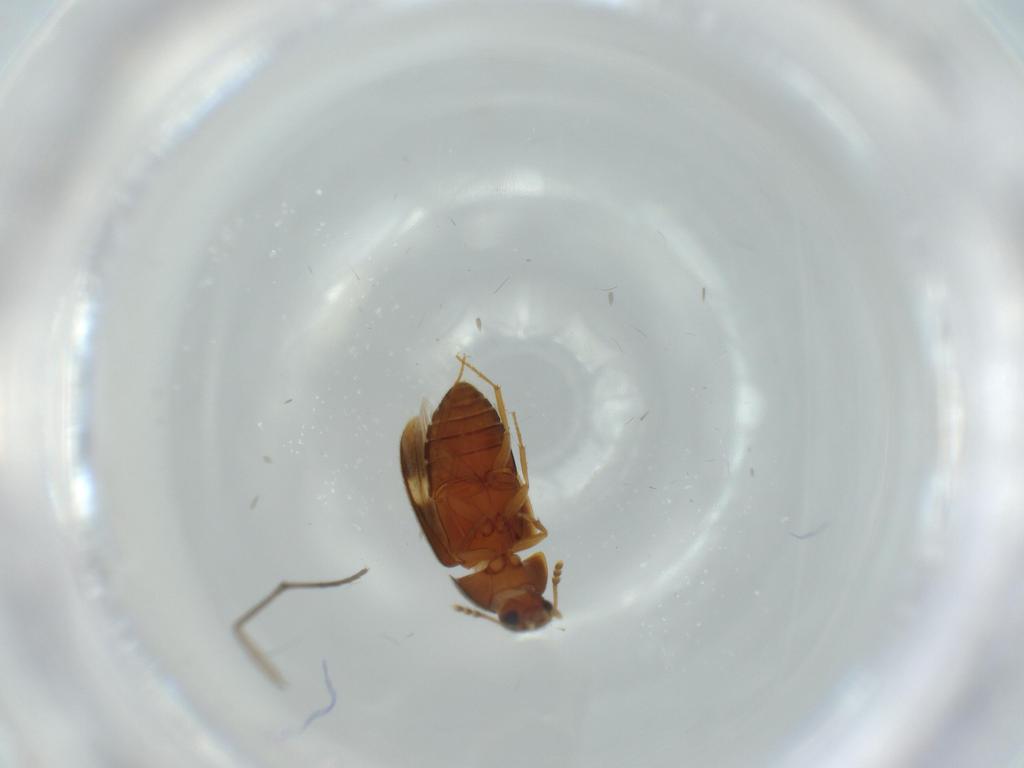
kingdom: Animalia
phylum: Arthropoda
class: Insecta
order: Coleoptera
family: Mycetophagidae
